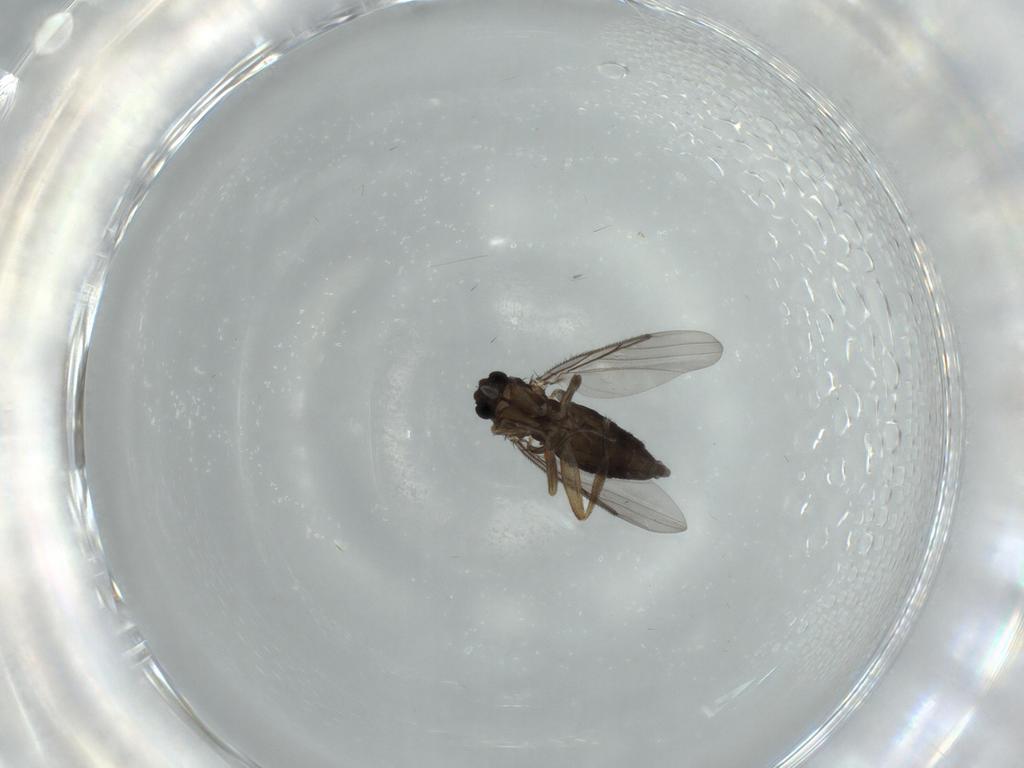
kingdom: Animalia
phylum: Arthropoda
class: Insecta
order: Diptera
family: Phoridae
